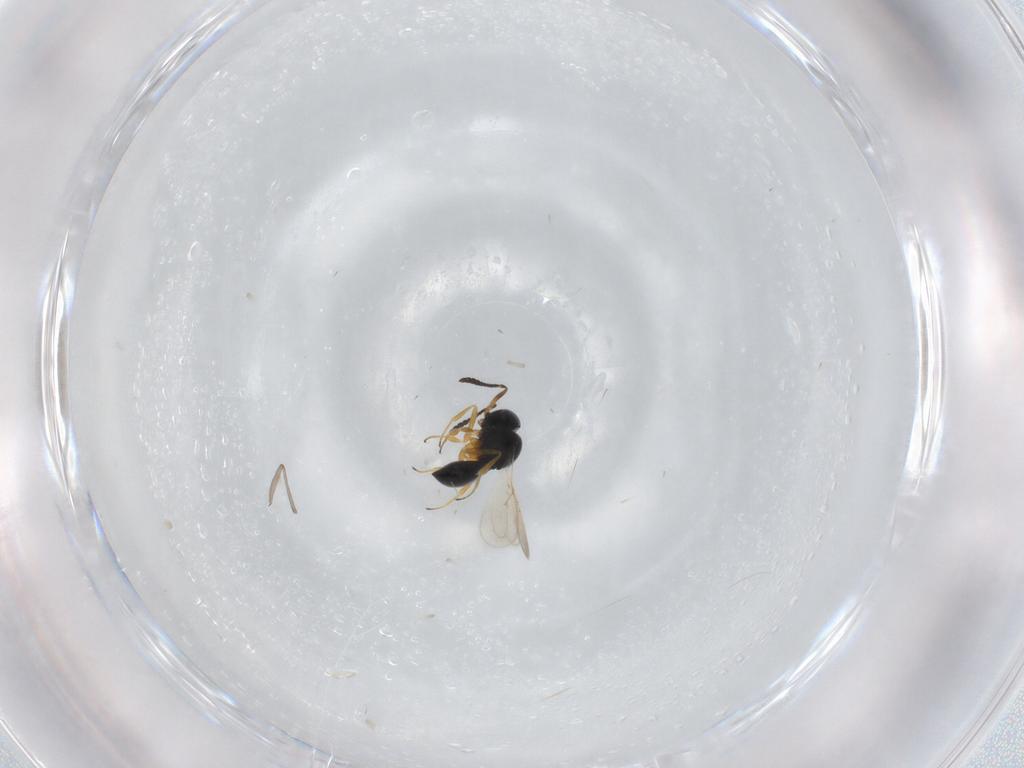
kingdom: Animalia
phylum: Arthropoda
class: Insecta
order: Hymenoptera
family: Scelionidae
